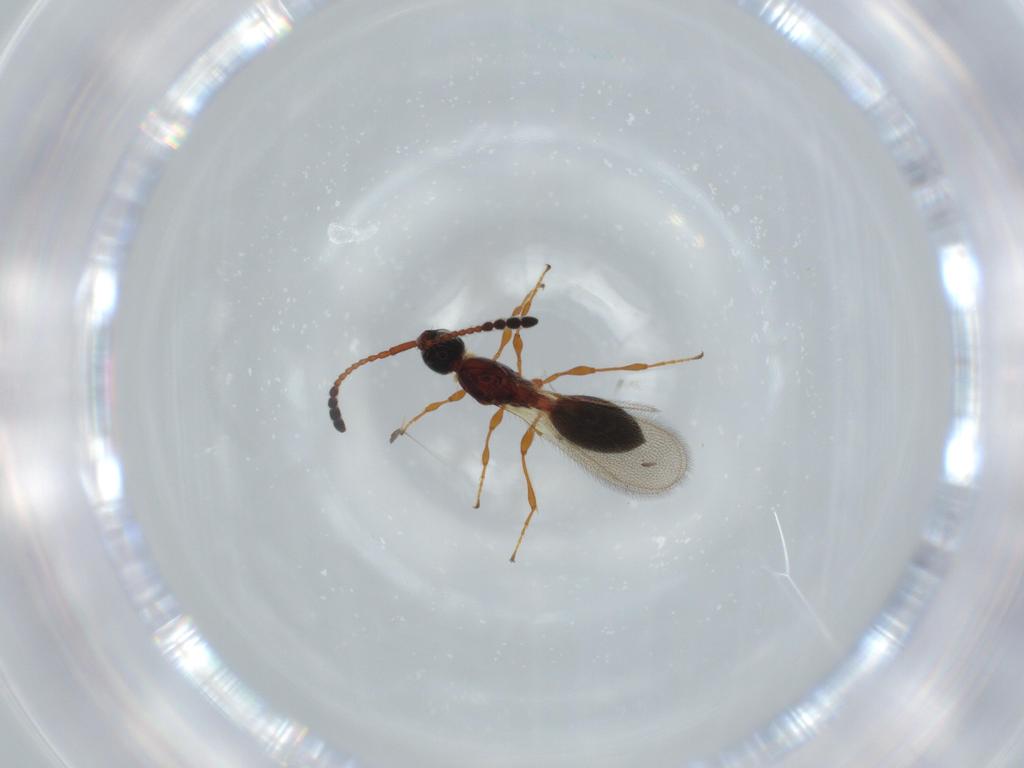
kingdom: Animalia
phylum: Arthropoda
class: Insecta
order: Hymenoptera
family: Diapriidae
